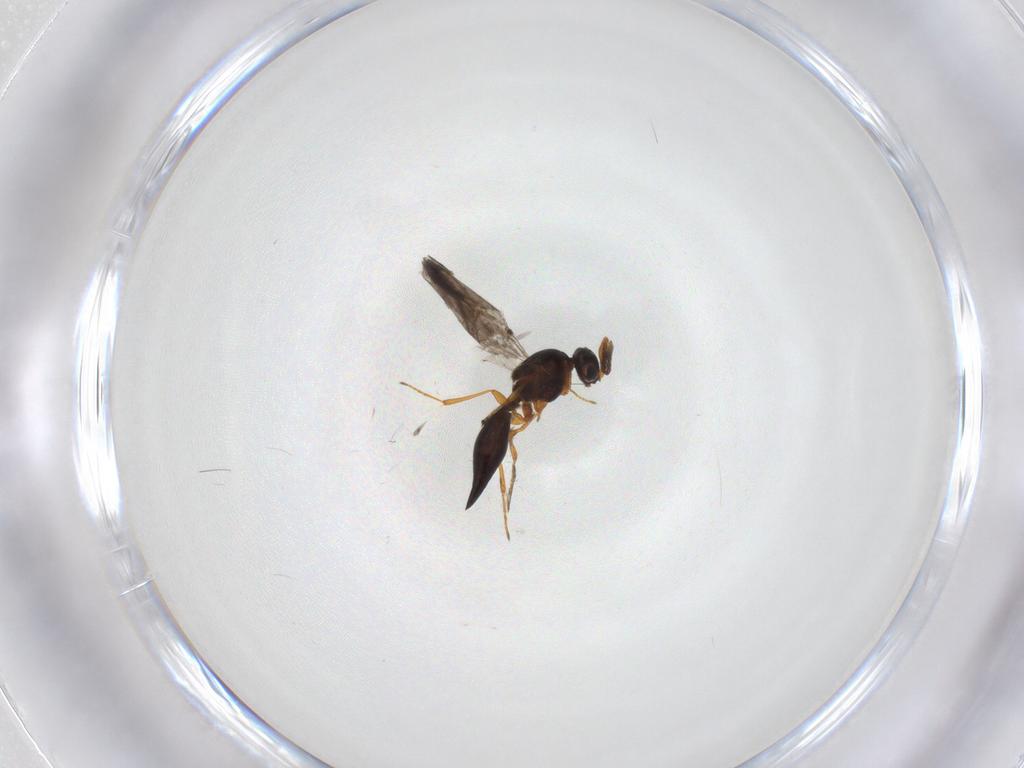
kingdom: Animalia
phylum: Arthropoda
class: Insecta
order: Hymenoptera
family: Platygastridae
